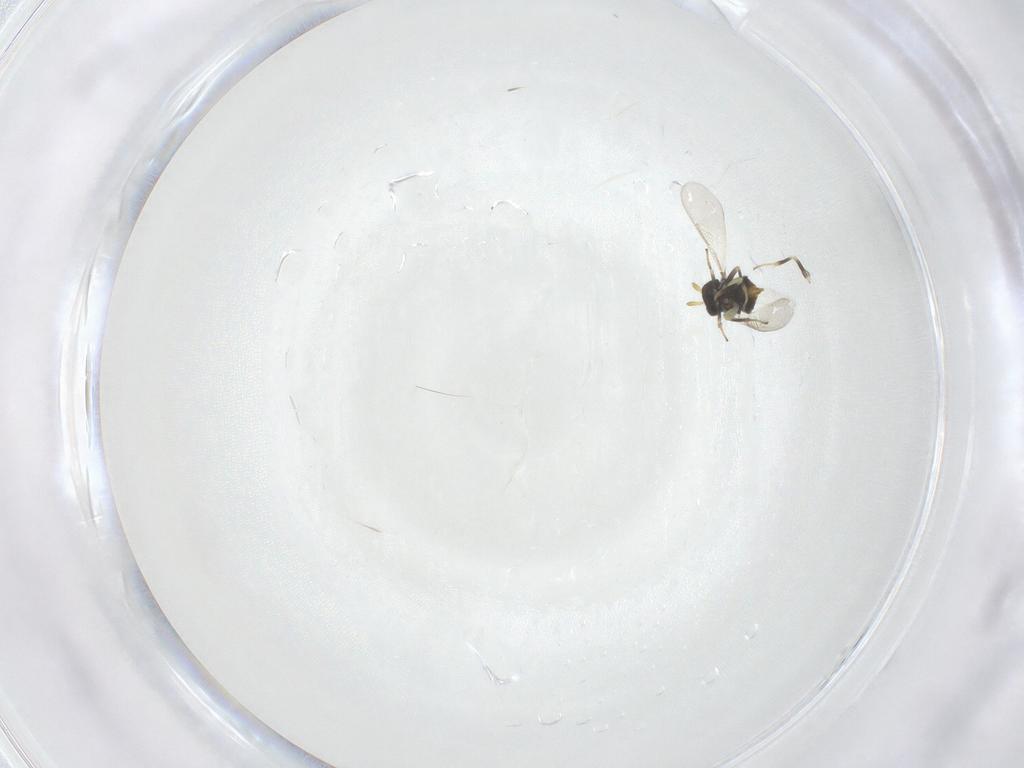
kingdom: Animalia
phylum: Arthropoda
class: Insecta
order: Hymenoptera
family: Aphelinidae
